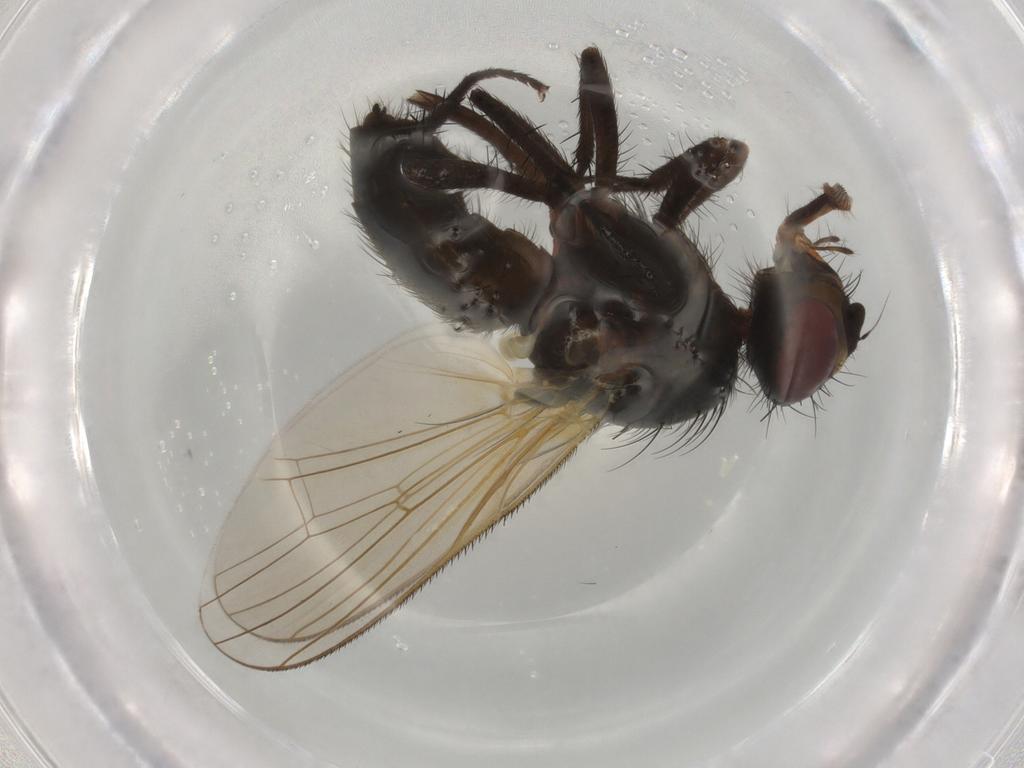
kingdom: Animalia
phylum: Arthropoda
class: Insecta
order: Diptera
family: Anthomyiidae
